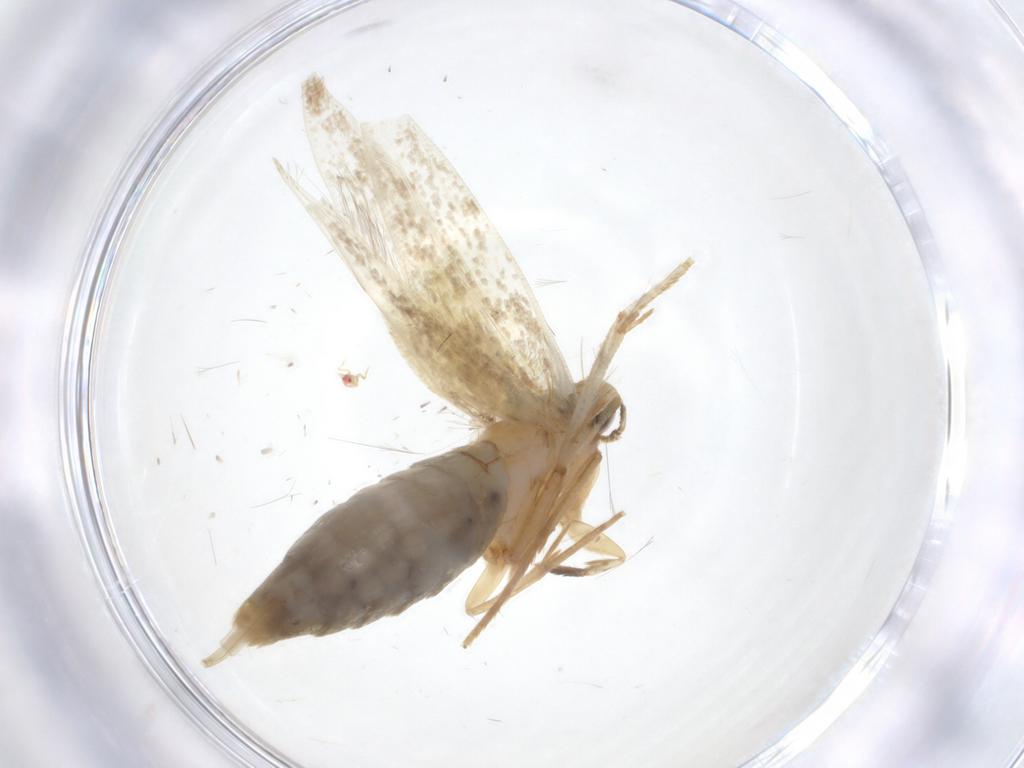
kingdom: Animalia
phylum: Arthropoda
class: Insecta
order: Lepidoptera
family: Tineidae
